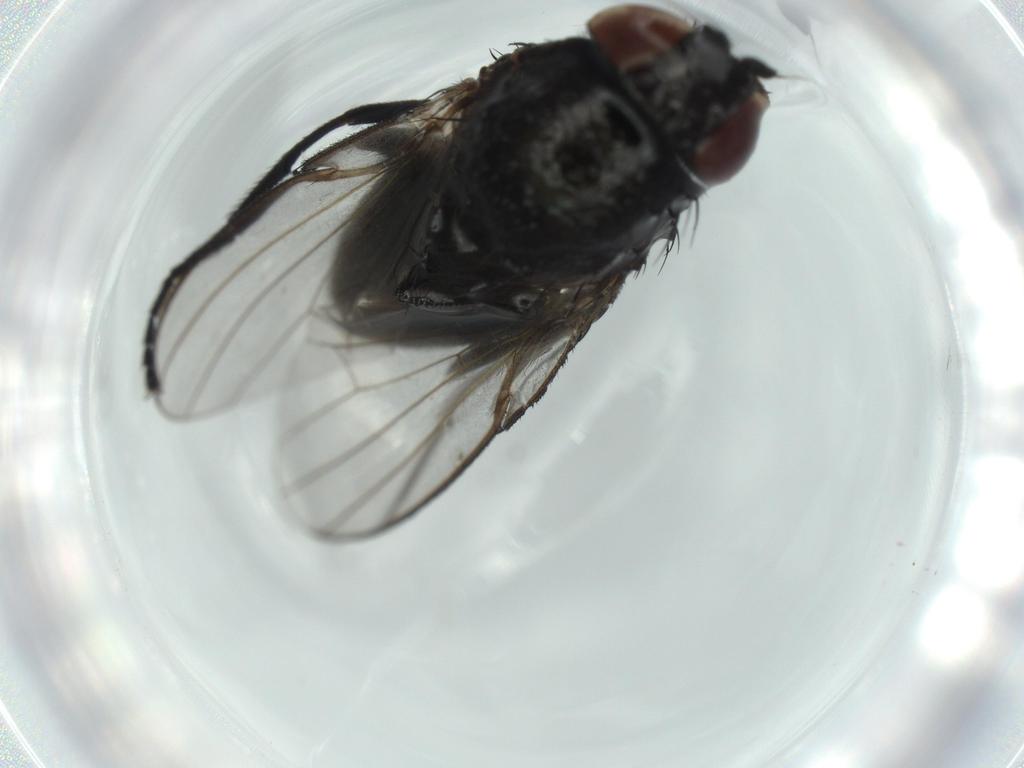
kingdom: Animalia
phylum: Arthropoda
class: Insecta
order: Diptera
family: Milichiidae
